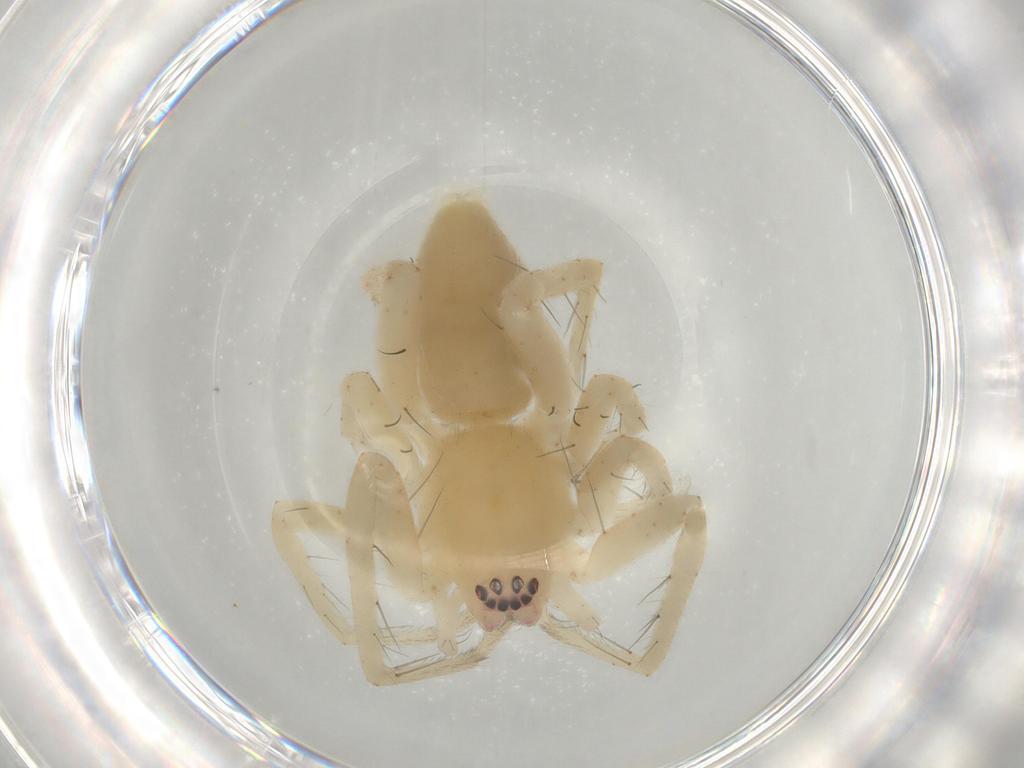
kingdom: Animalia
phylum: Arthropoda
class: Arachnida
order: Araneae
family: Anyphaenidae
